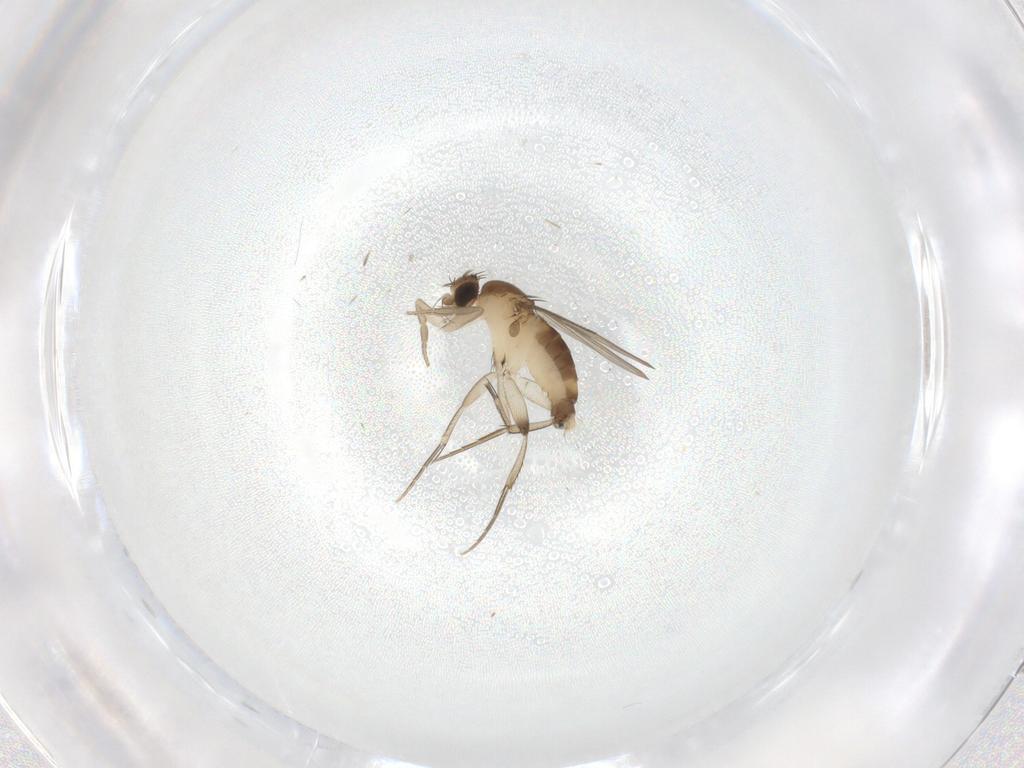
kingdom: Animalia
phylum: Arthropoda
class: Insecta
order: Diptera
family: Phoridae
